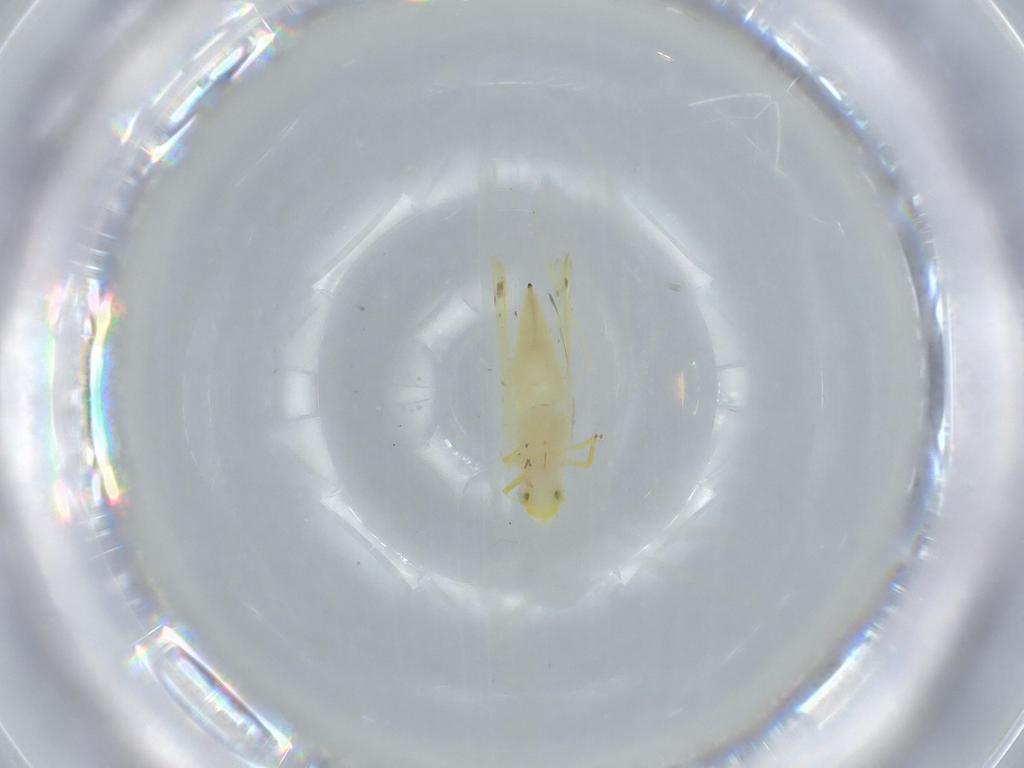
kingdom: Animalia
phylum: Arthropoda
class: Insecta
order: Hemiptera
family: Cicadellidae
